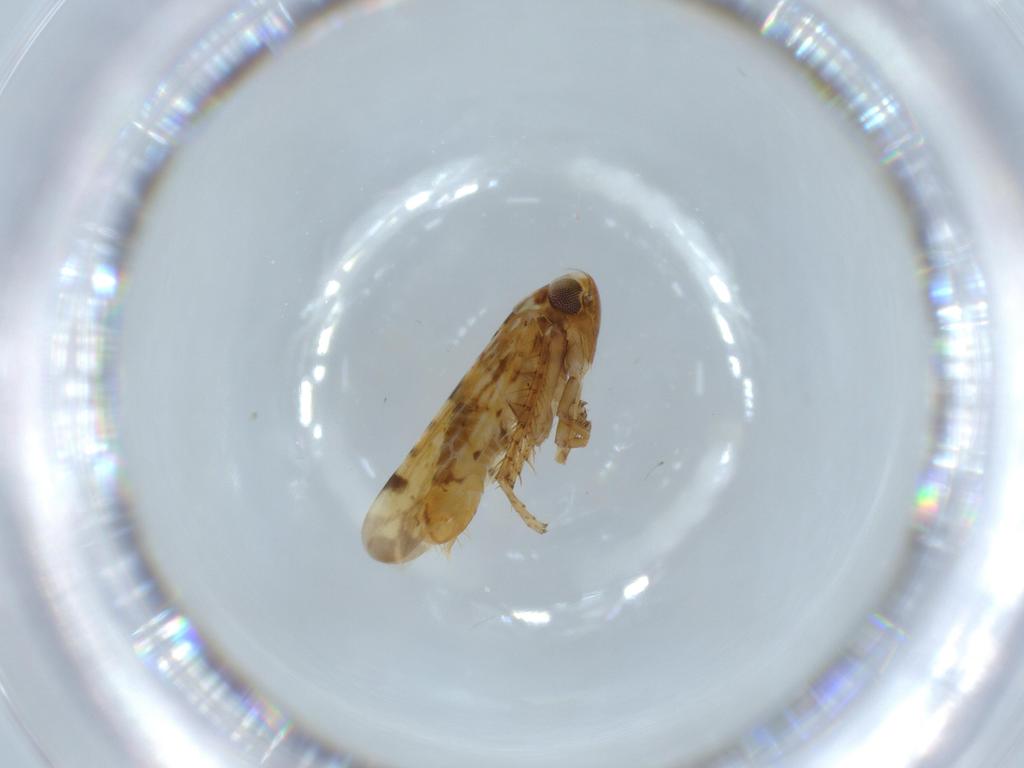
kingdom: Animalia
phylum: Arthropoda
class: Insecta
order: Hemiptera
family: Cicadellidae
